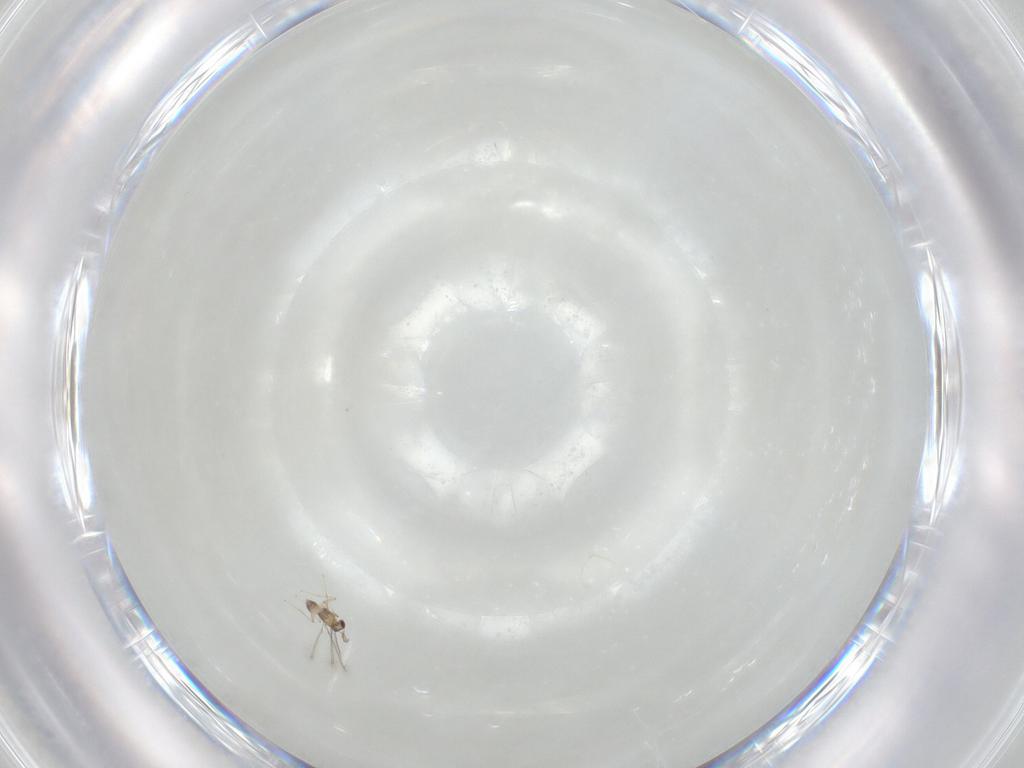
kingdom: Animalia
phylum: Arthropoda
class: Insecta
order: Hymenoptera
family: Mymaridae
